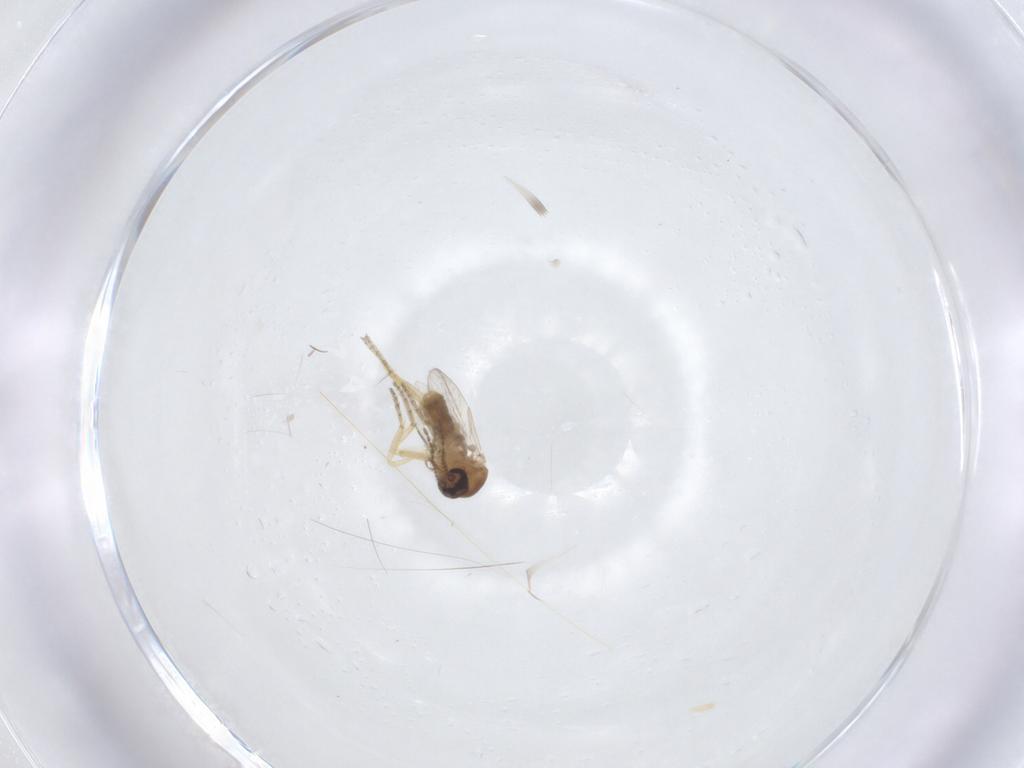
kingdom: Animalia
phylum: Arthropoda
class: Insecta
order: Diptera
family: Ceratopogonidae
